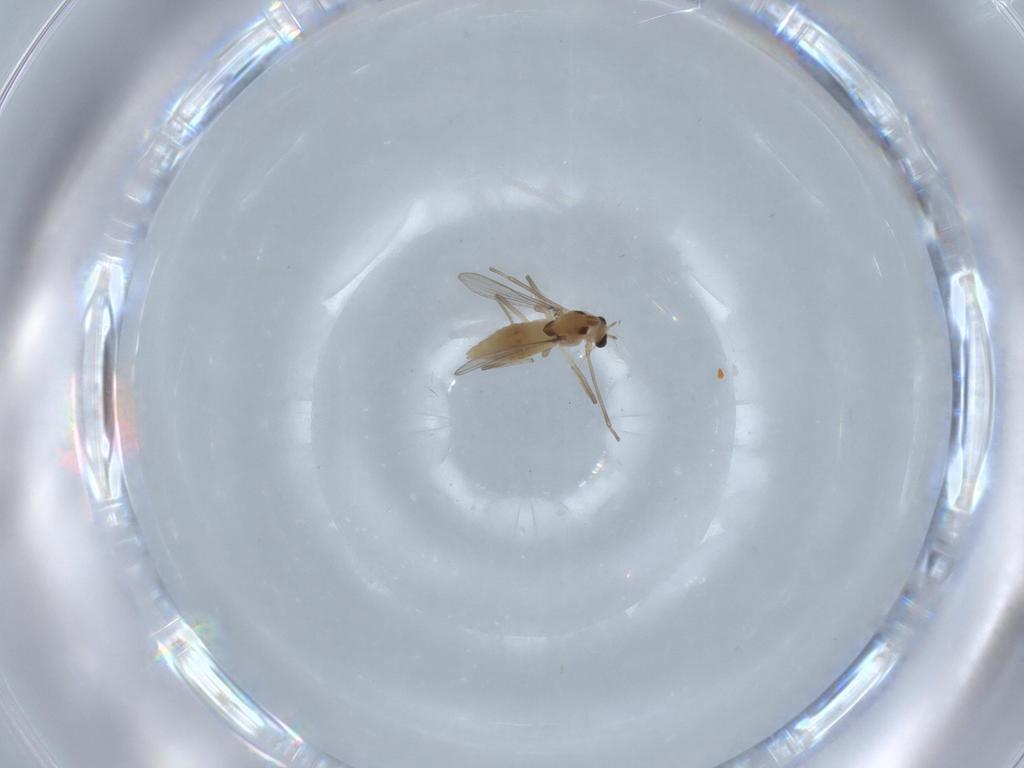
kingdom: Animalia
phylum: Arthropoda
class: Insecta
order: Diptera
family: Chironomidae
